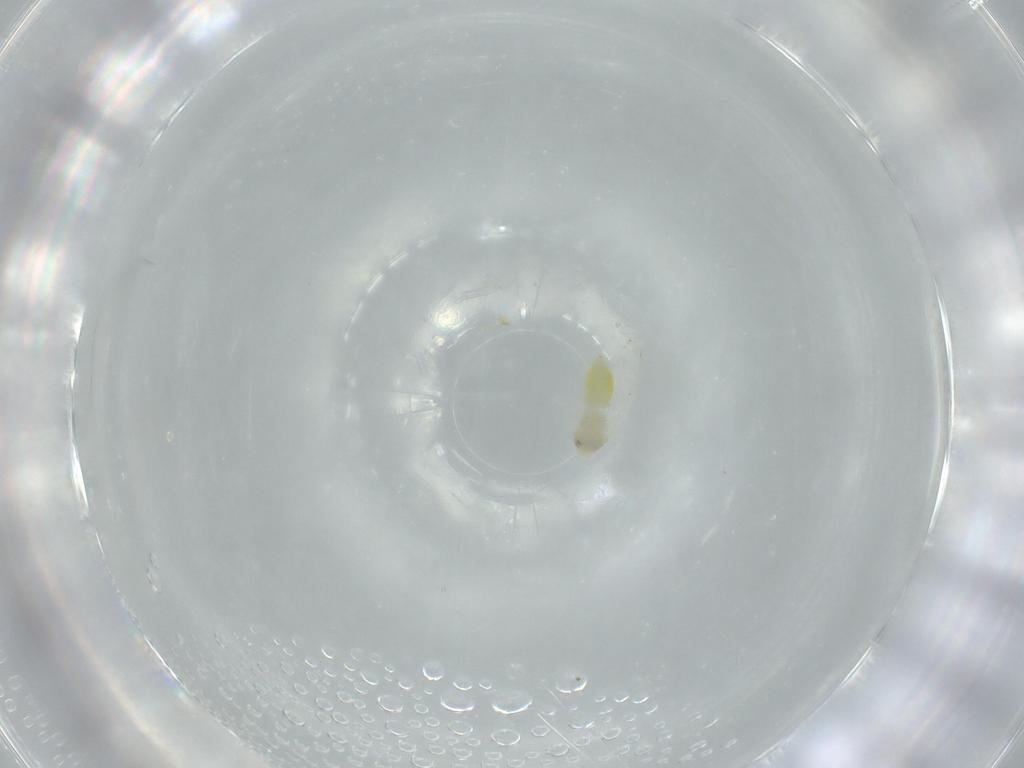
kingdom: Animalia
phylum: Arthropoda
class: Insecta
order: Hemiptera
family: Aleyrodidae
